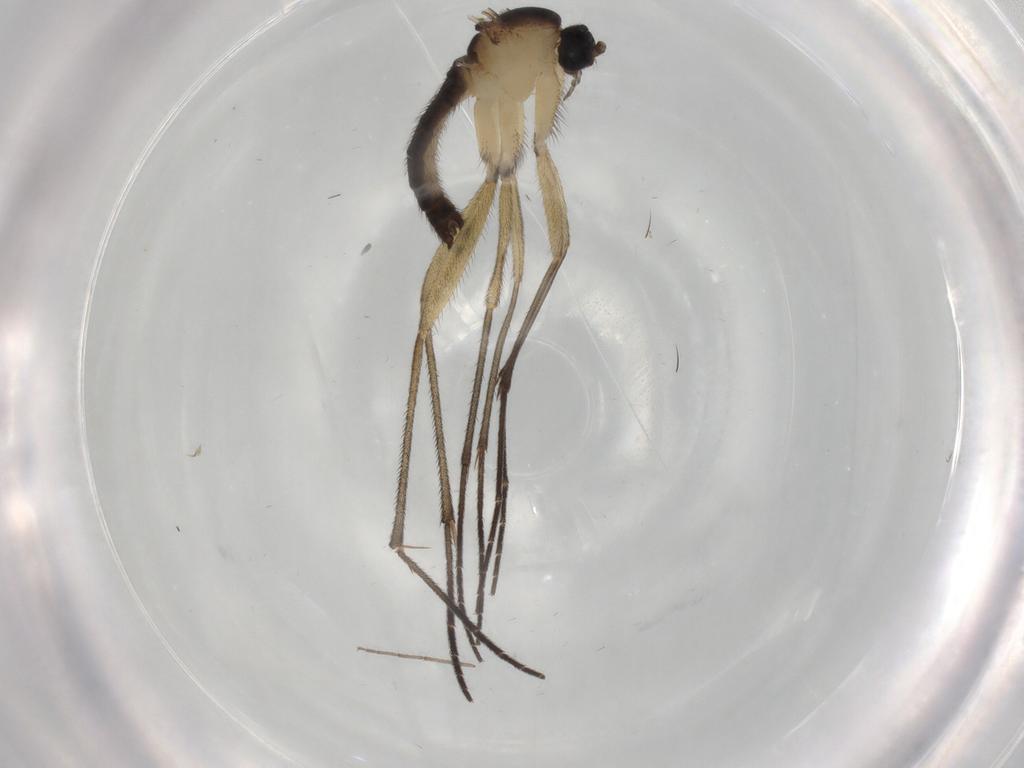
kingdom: Animalia
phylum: Arthropoda
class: Insecta
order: Diptera
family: Sciaridae
